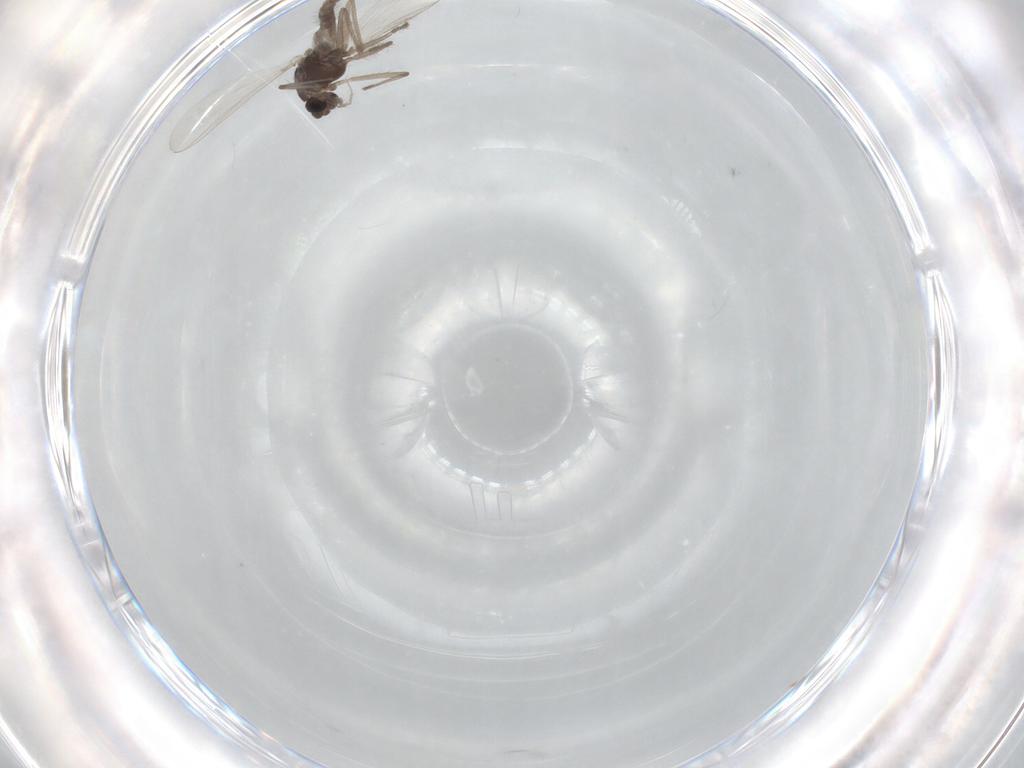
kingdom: Animalia
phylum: Arthropoda
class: Insecta
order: Diptera
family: Chironomidae
